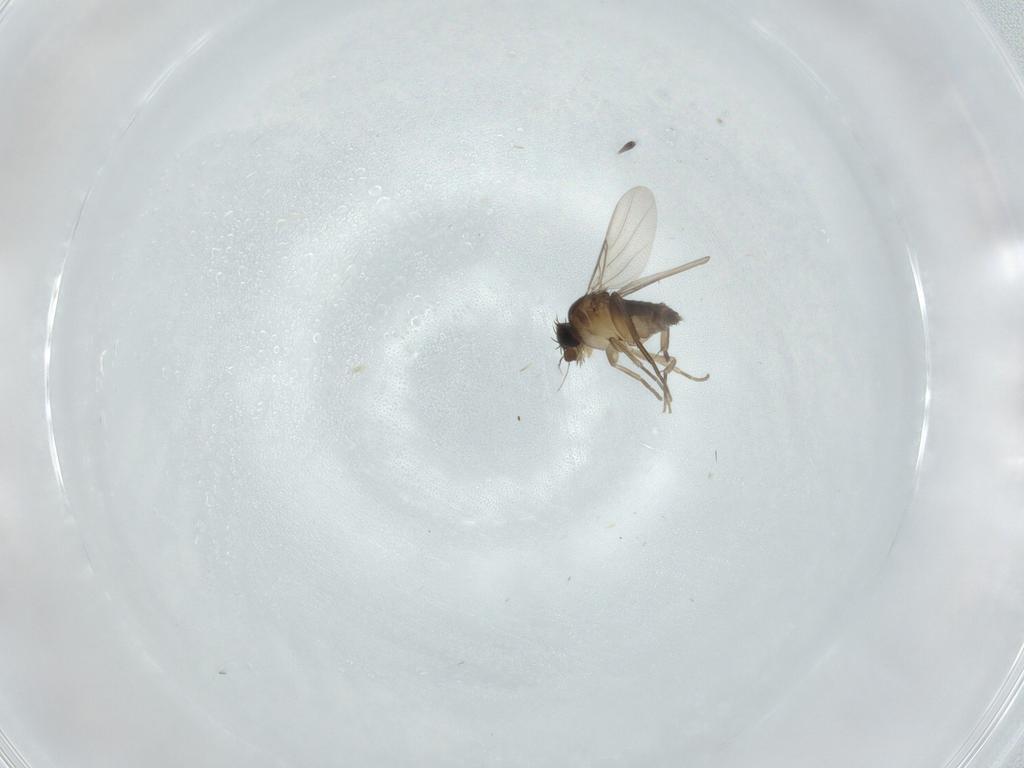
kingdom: Animalia
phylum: Arthropoda
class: Insecta
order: Diptera
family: Phoridae
